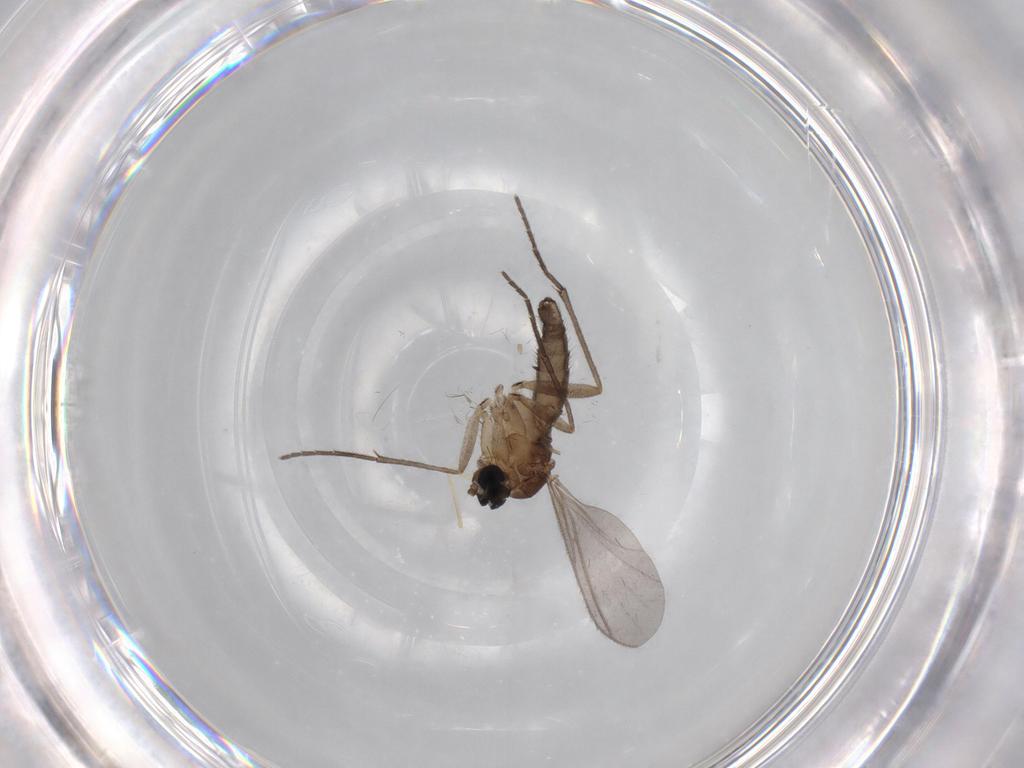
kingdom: Animalia
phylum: Arthropoda
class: Insecta
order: Diptera
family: Sciaridae
